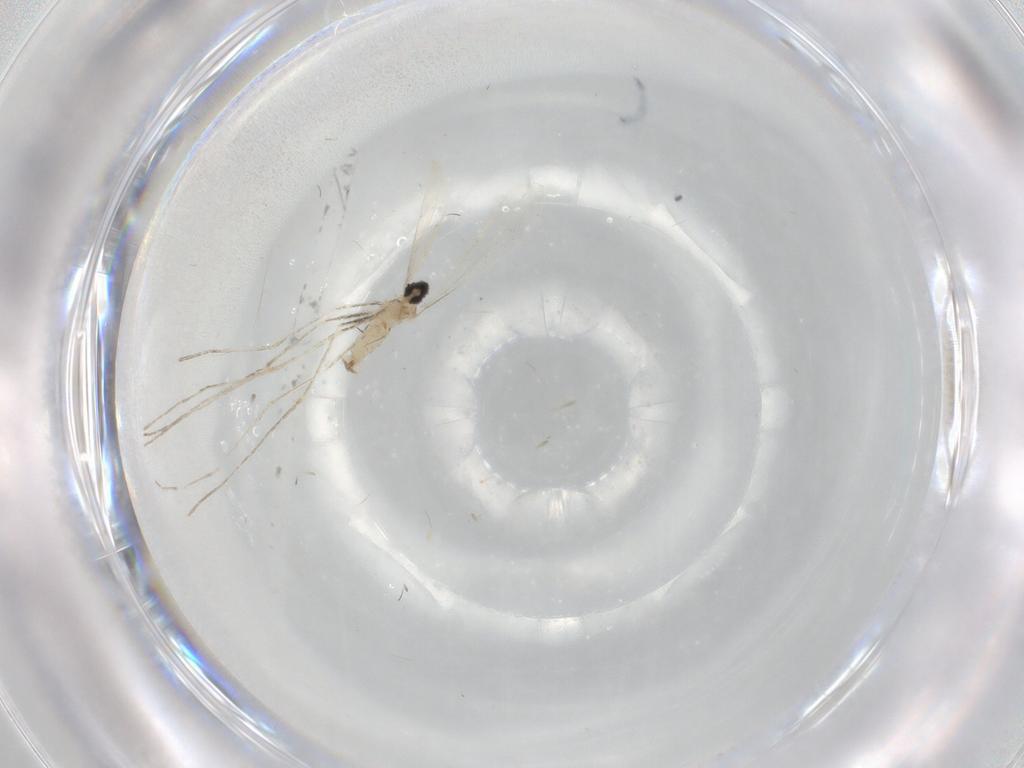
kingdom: Animalia
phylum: Arthropoda
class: Insecta
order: Diptera
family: Cecidomyiidae
